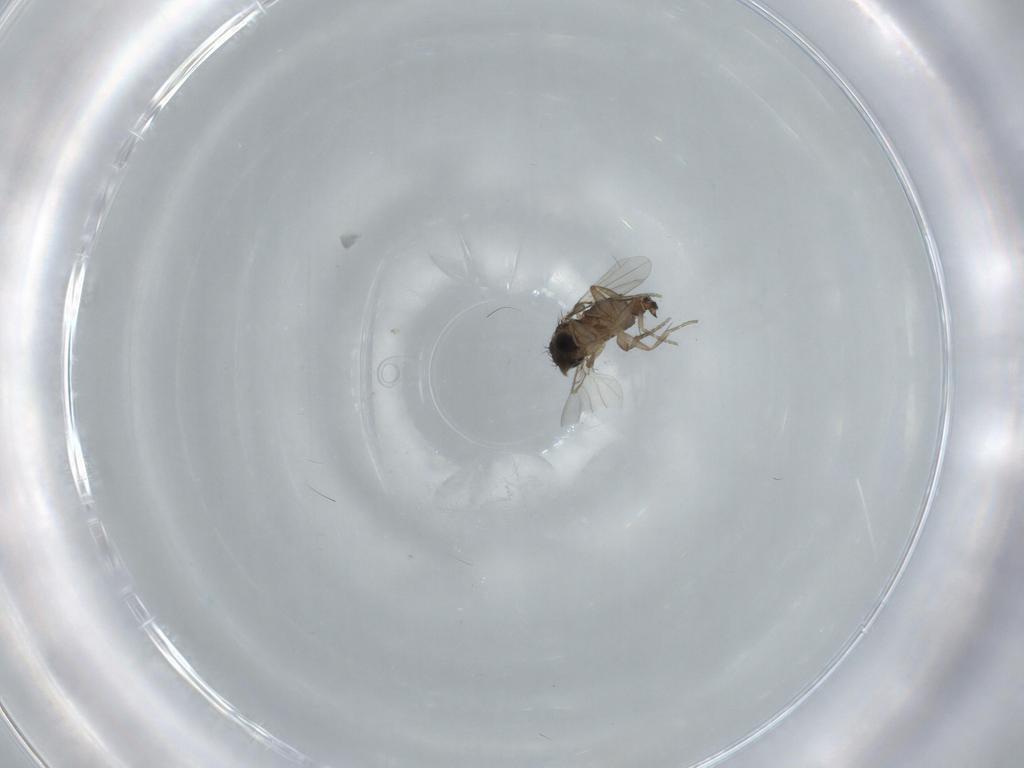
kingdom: Animalia
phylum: Arthropoda
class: Insecta
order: Diptera
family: Phoridae
